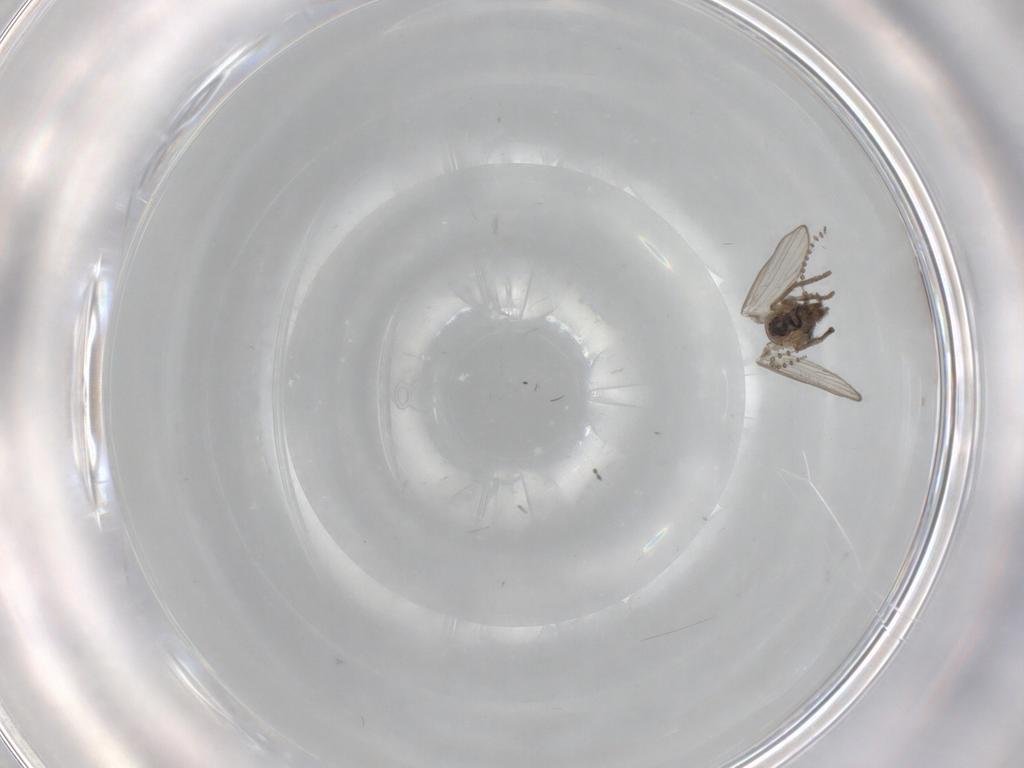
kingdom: Animalia
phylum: Arthropoda
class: Insecta
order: Diptera
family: Psychodidae
